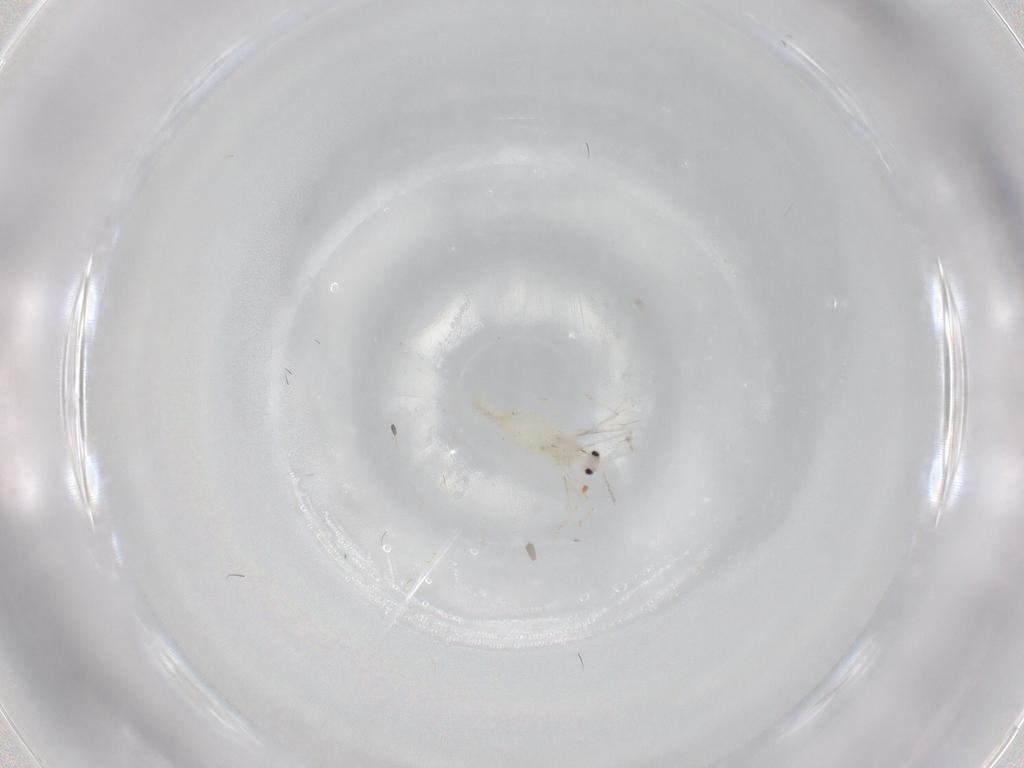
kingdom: Animalia
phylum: Arthropoda
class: Insecta
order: Diptera
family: Cecidomyiidae
